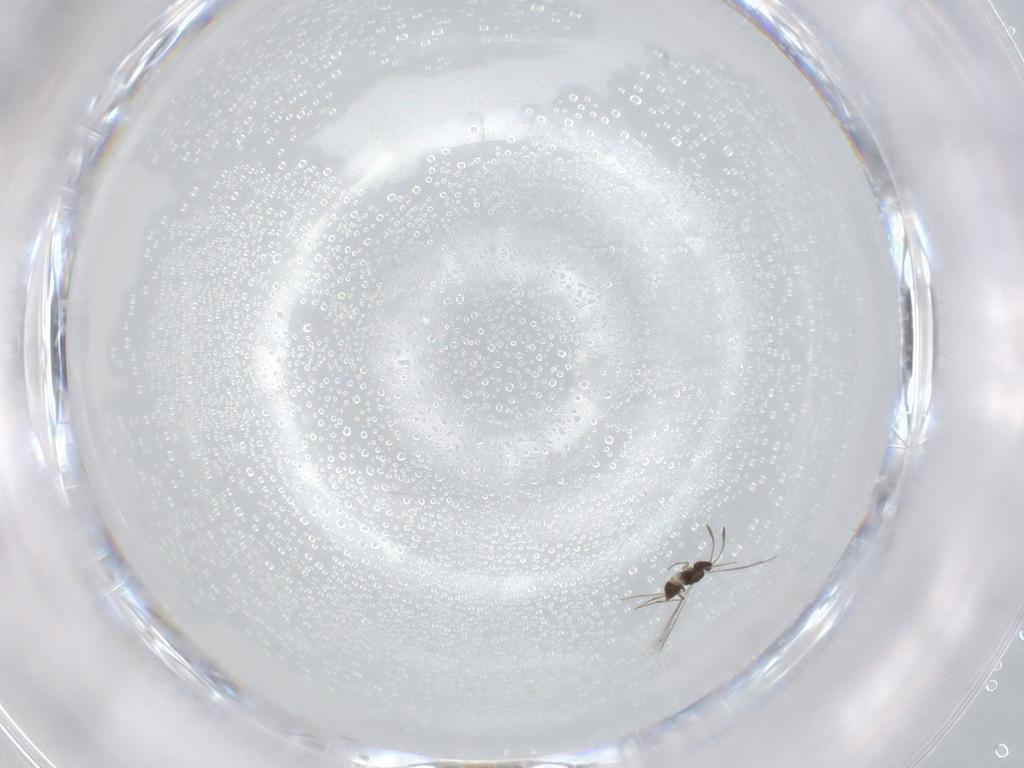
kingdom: Animalia
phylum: Arthropoda
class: Insecta
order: Hymenoptera
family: Mymaridae
